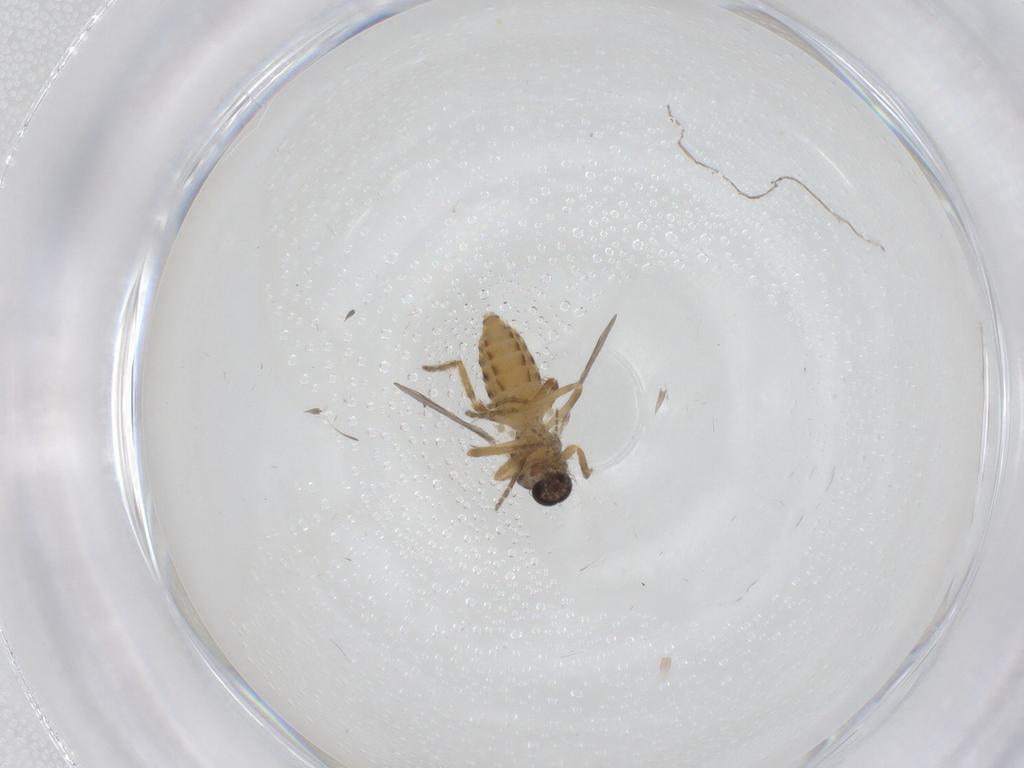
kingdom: Animalia
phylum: Arthropoda
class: Insecta
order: Diptera
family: Ceratopogonidae
